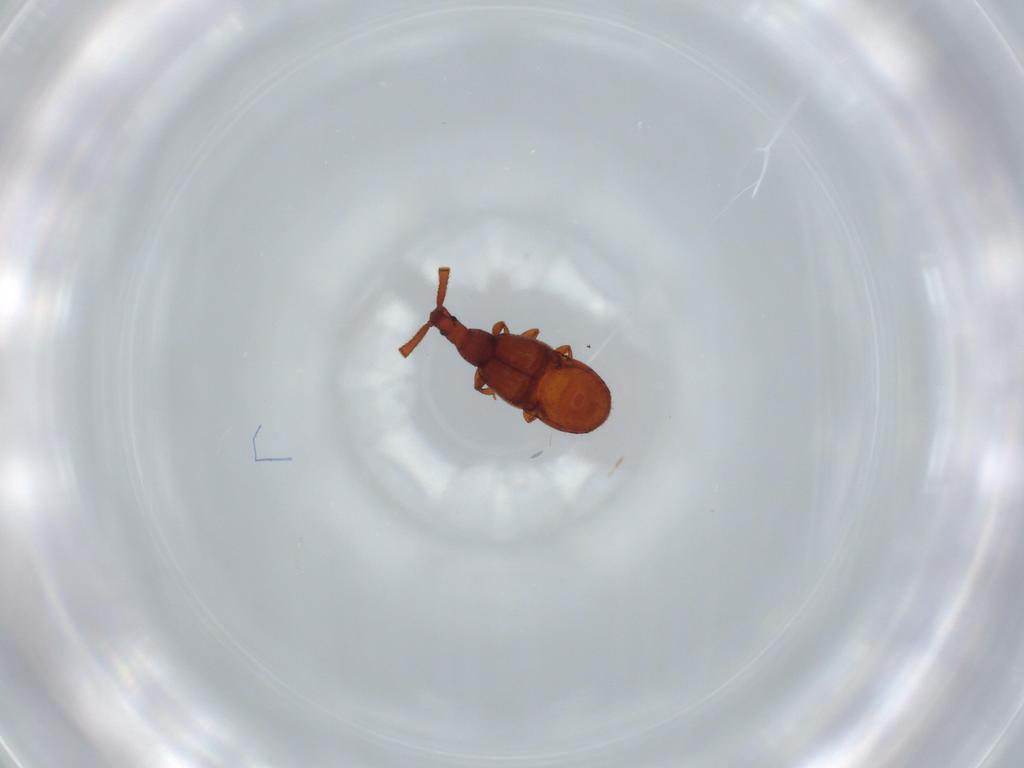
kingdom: Animalia
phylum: Arthropoda
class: Insecta
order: Coleoptera
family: Staphylinidae
